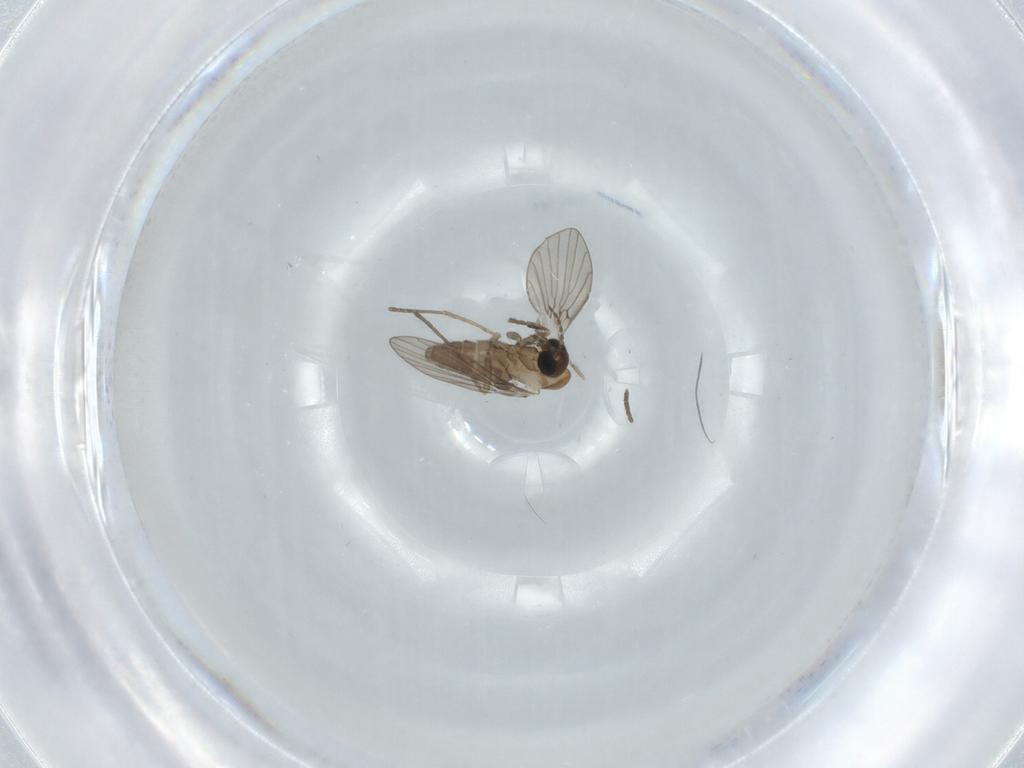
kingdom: Animalia
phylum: Arthropoda
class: Insecta
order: Diptera
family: Psychodidae
